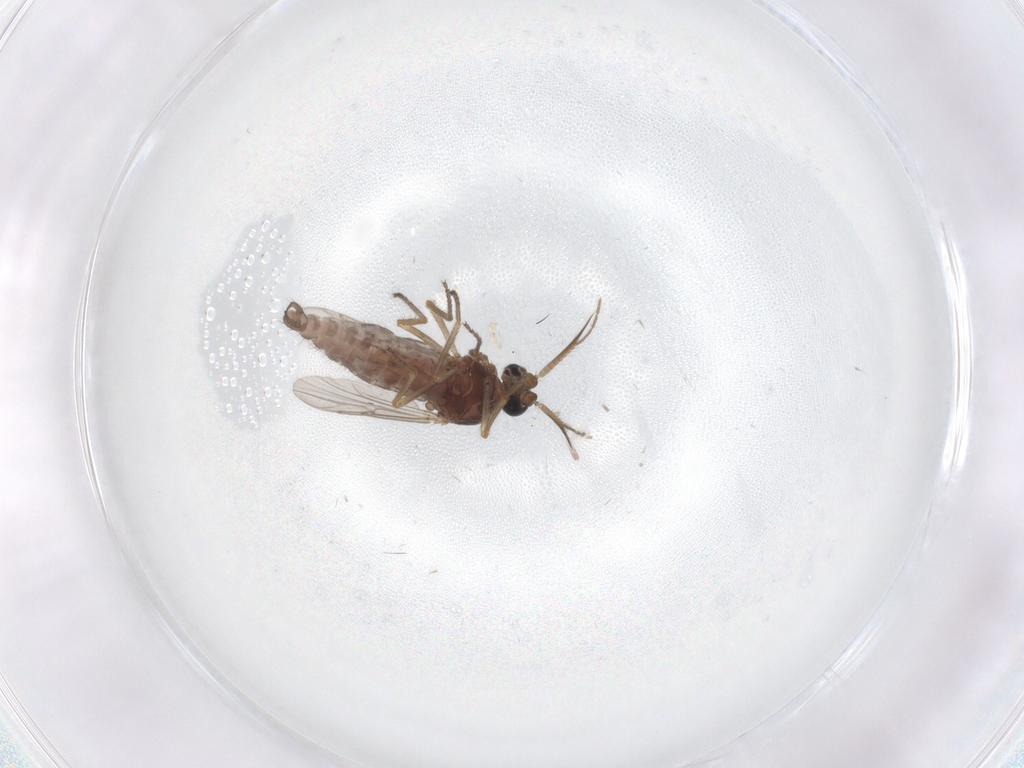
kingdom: Animalia
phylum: Arthropoda
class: Insecta
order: Diptera
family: Ceratopogonidae
